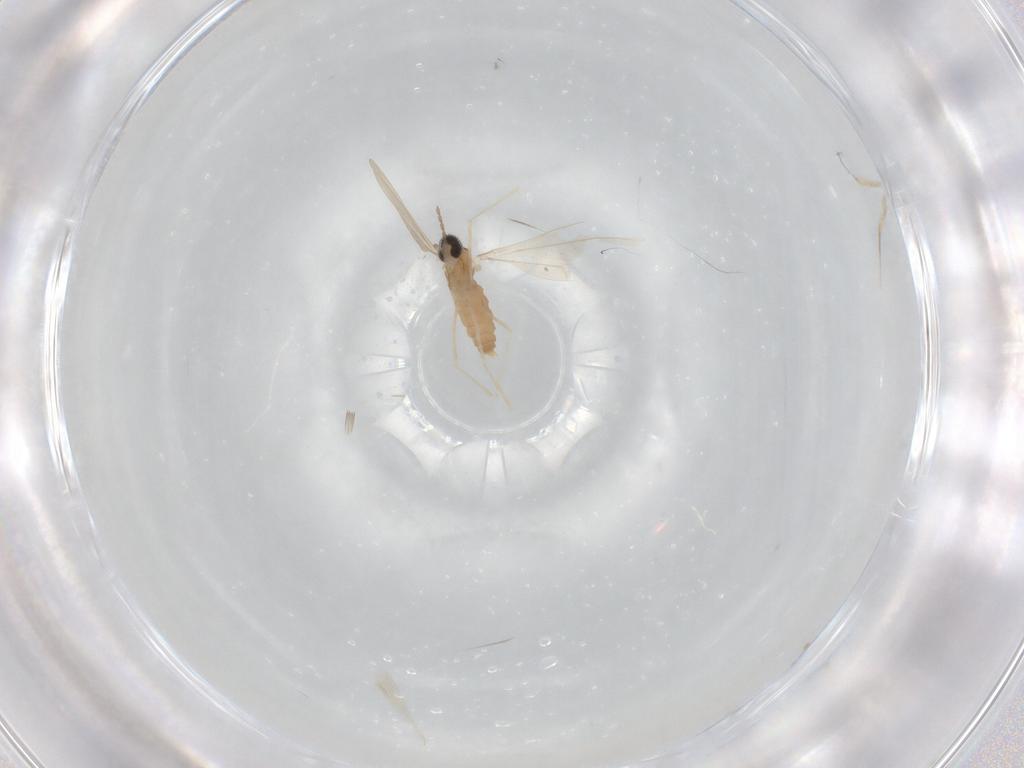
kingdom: Animalia
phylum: Arthropoda
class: Insecta
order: Diptera
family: Cecidomyiidae
